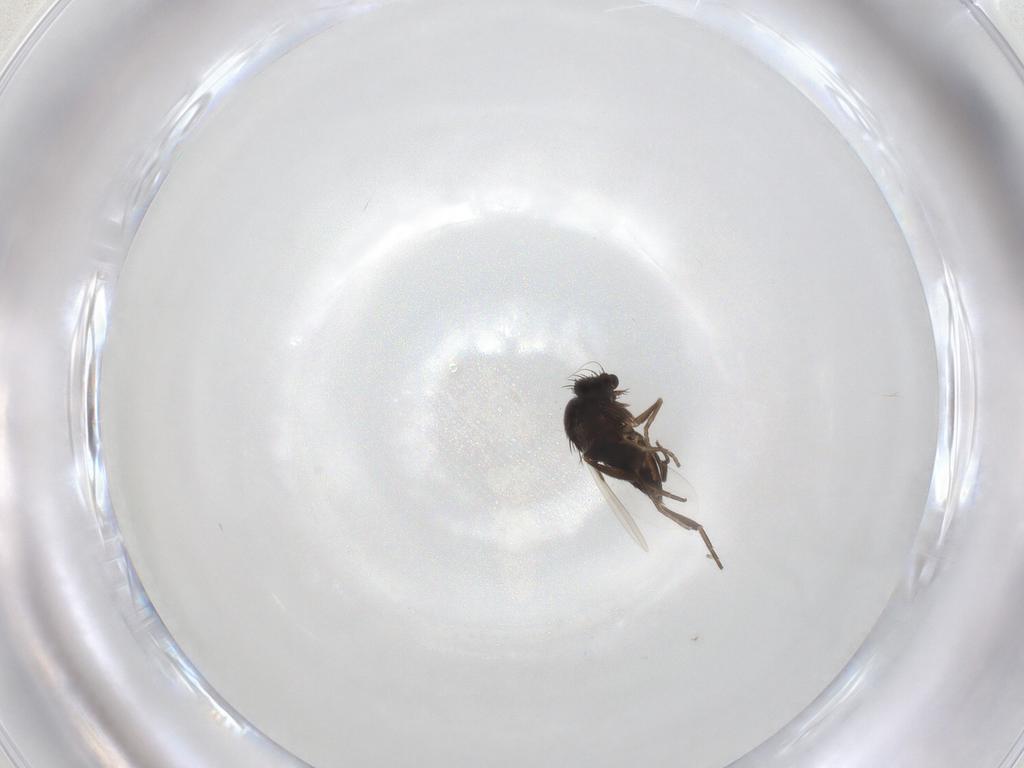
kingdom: Animalia
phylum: Arthropoda
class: Insecta
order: Diptera
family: Phoridae
